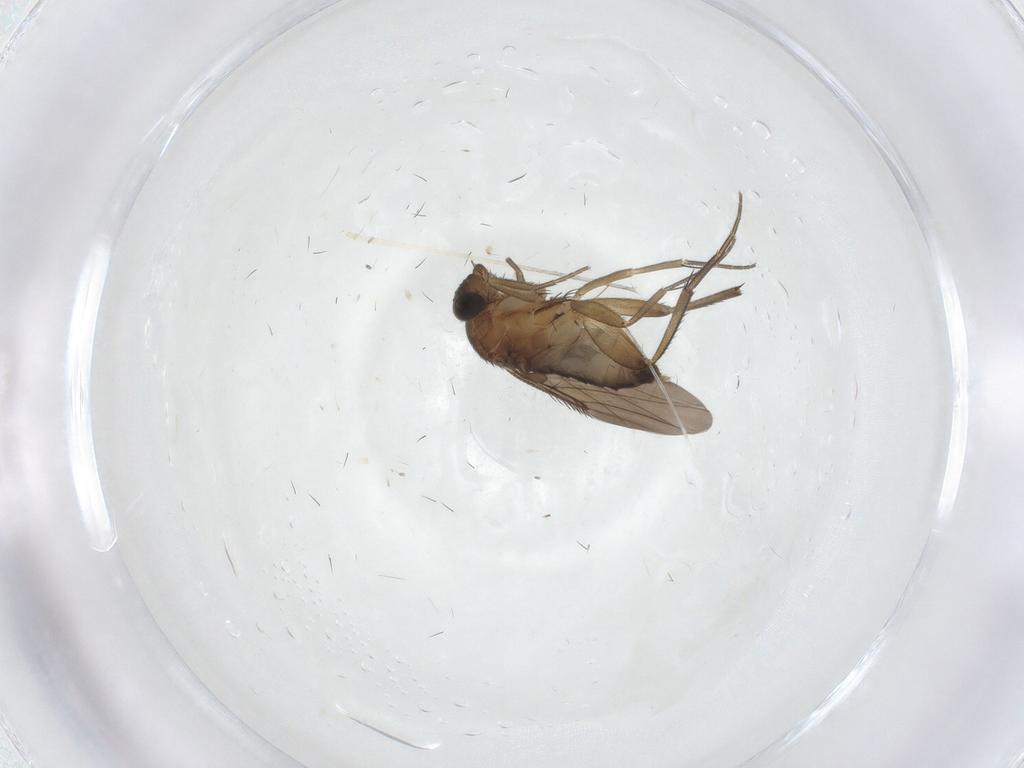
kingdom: Animalia
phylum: Arthropoda
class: Insecta
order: Diptera
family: Phoridae
